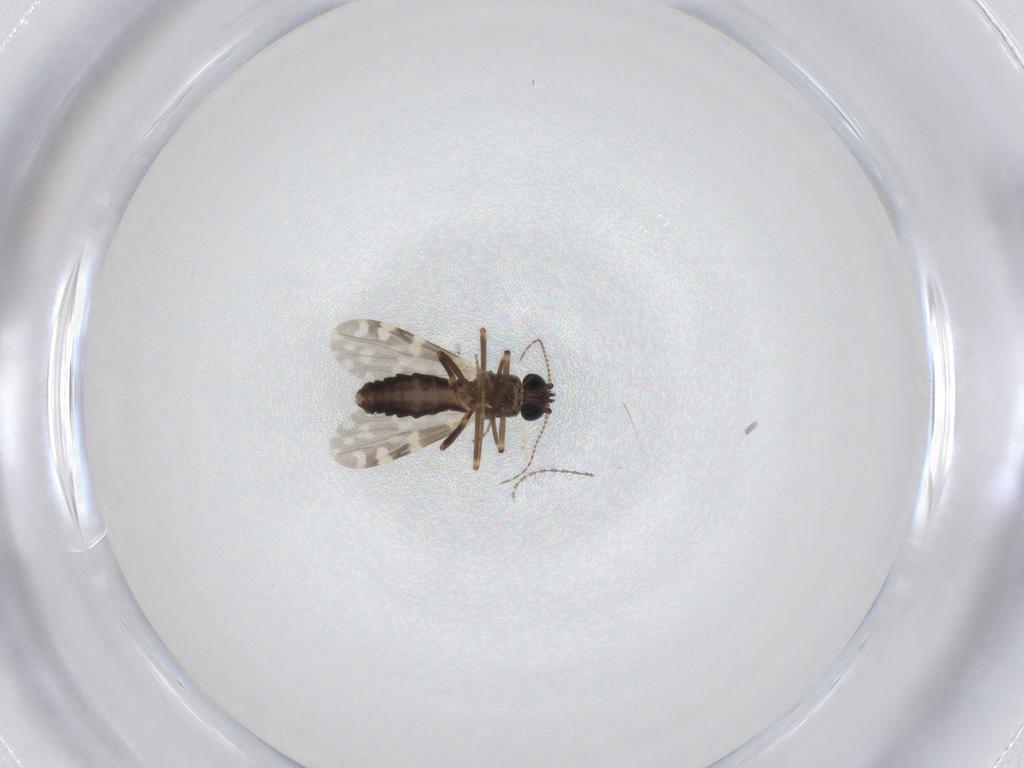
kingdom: Animalia
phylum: Arthropoda
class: Insecta
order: Diptera
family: Ceratopogonidae
